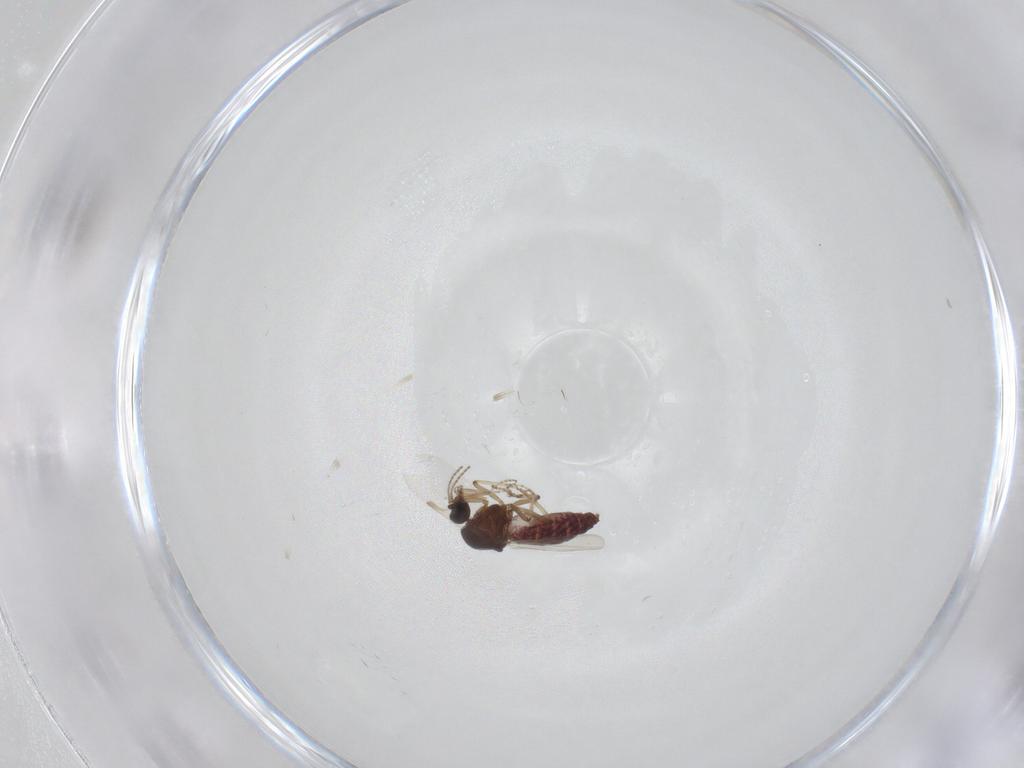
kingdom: Animalia
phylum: Arthropoda
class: Insecta
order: Diptera
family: Ceratopogonidae
